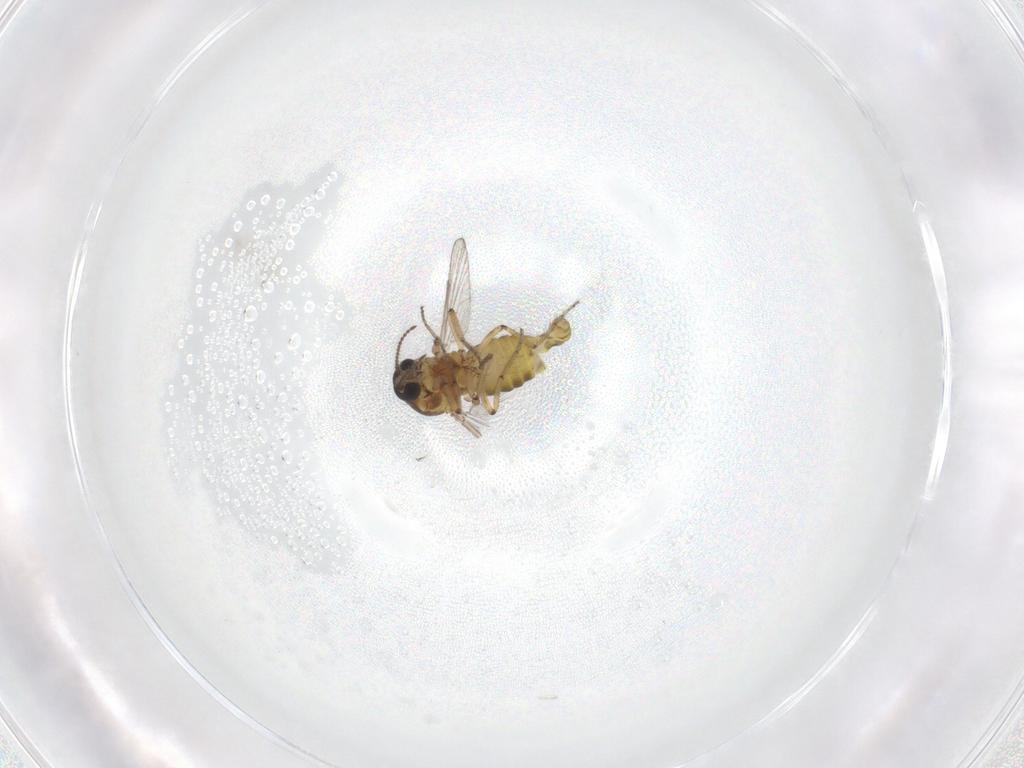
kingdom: Animalia
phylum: Arthropoda
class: Insecta
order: Diptera
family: Ceratopogonidae
